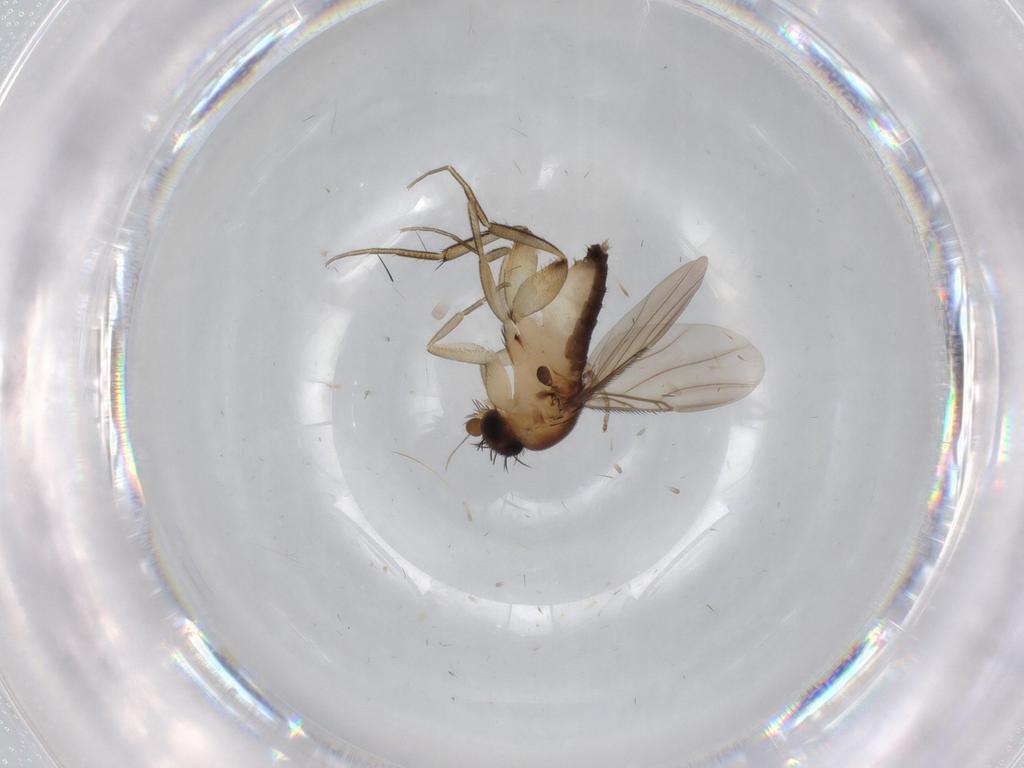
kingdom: Animalia
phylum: Arthropoda
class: Insecta
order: Diptera
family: Phoridae
